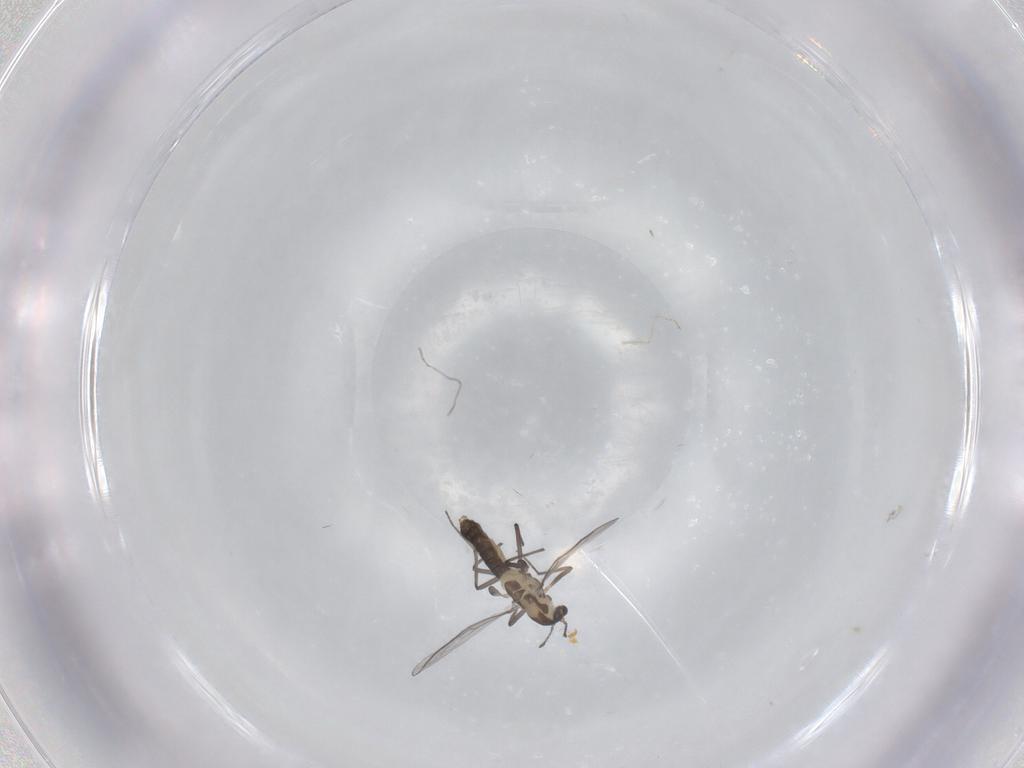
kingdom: Animalia
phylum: Arthropoda
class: Insecta
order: Diptera
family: Chironomidae
